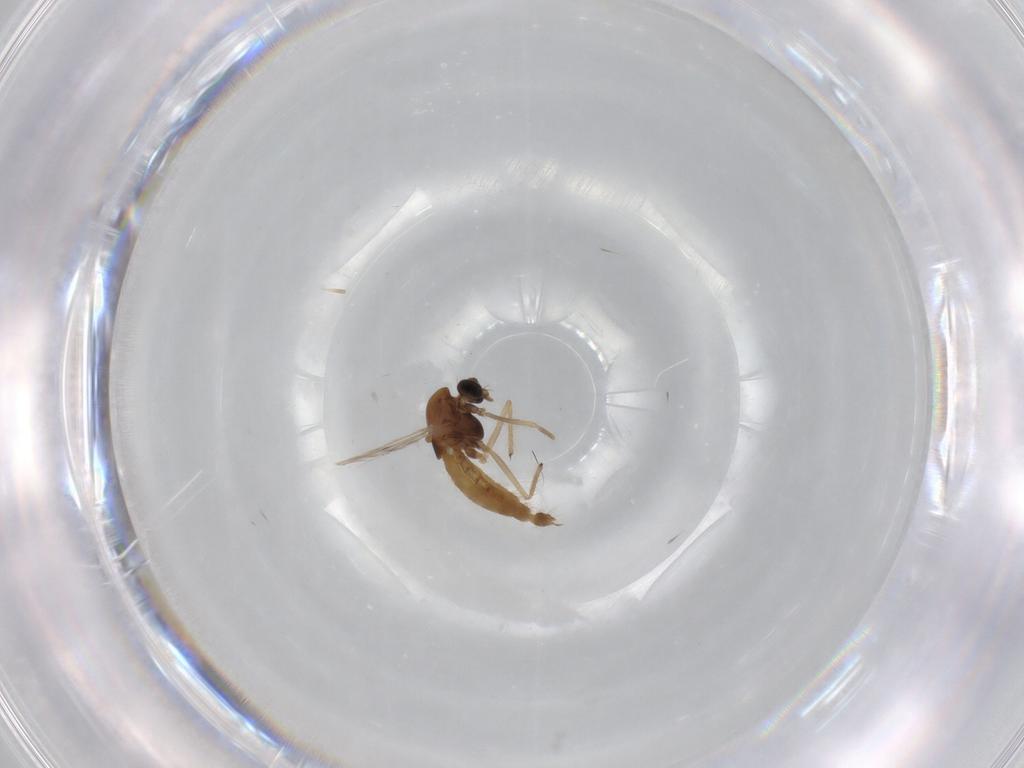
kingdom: Animalia
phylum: Arthropoda
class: Insecta
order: Diptera
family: Chironomidae
